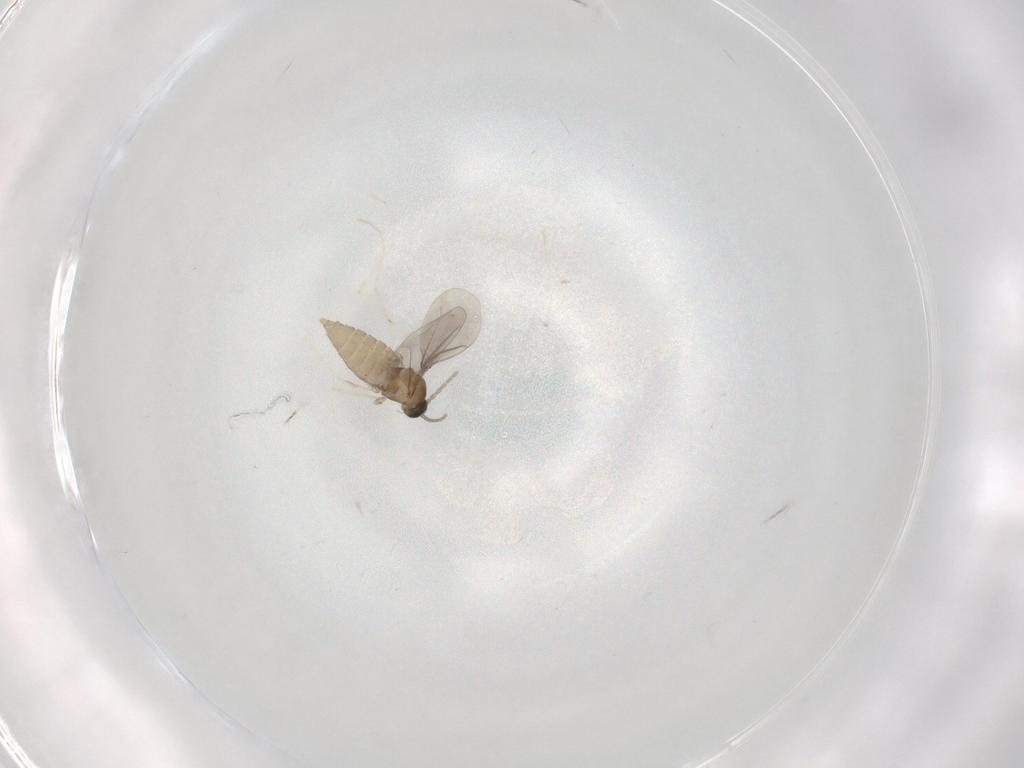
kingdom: Animalia
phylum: Arthropoda
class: Insecta
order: Diptera
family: Cecidomyiidae
